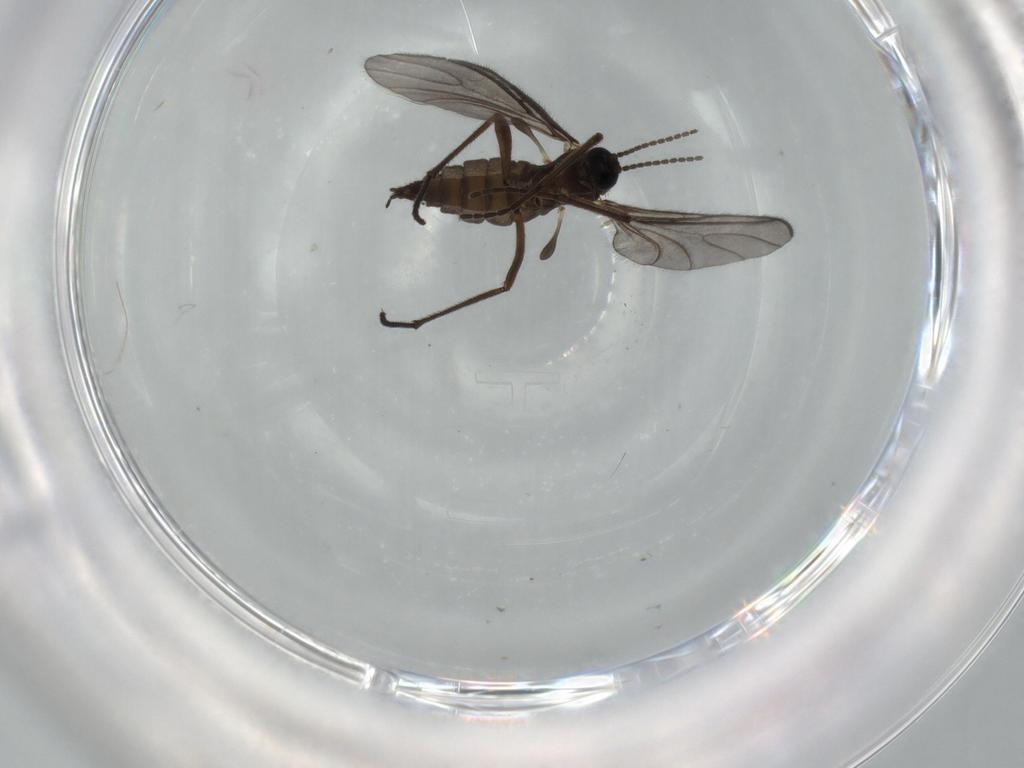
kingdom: Animalia
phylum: Arthropoda
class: Insecta
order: Diptera
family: Sciaridae
